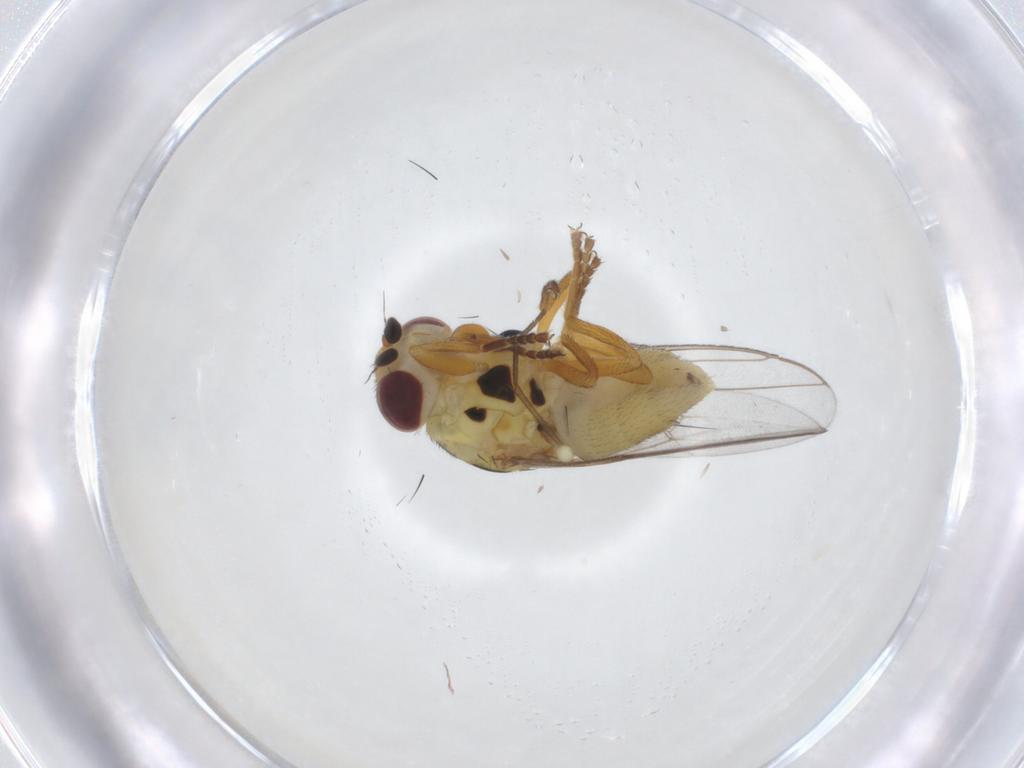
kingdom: Animalia
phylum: Arthropoda
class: Insecta
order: Diptera
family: Chloropidae
